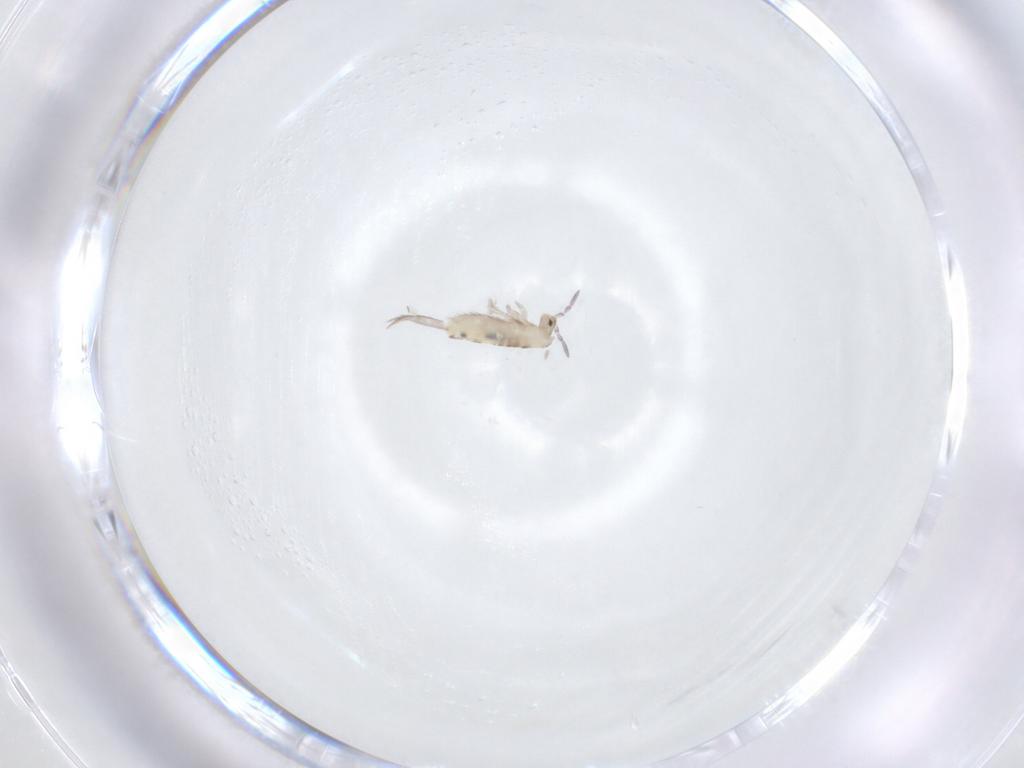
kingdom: Animalia
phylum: Arthropoda
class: Collembola
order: Entomobryomorpha
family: Entomobryidae
